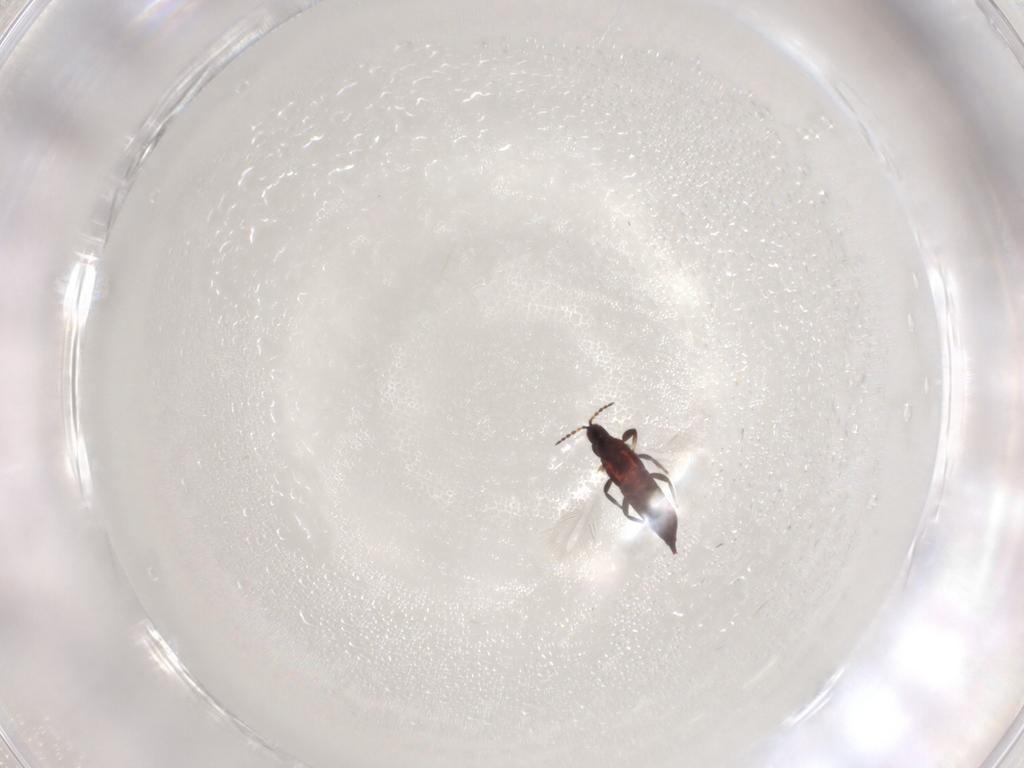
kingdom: Animalia
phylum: Arthropoda
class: Insecta
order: Thysanoptera
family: Phlaeothripidae
